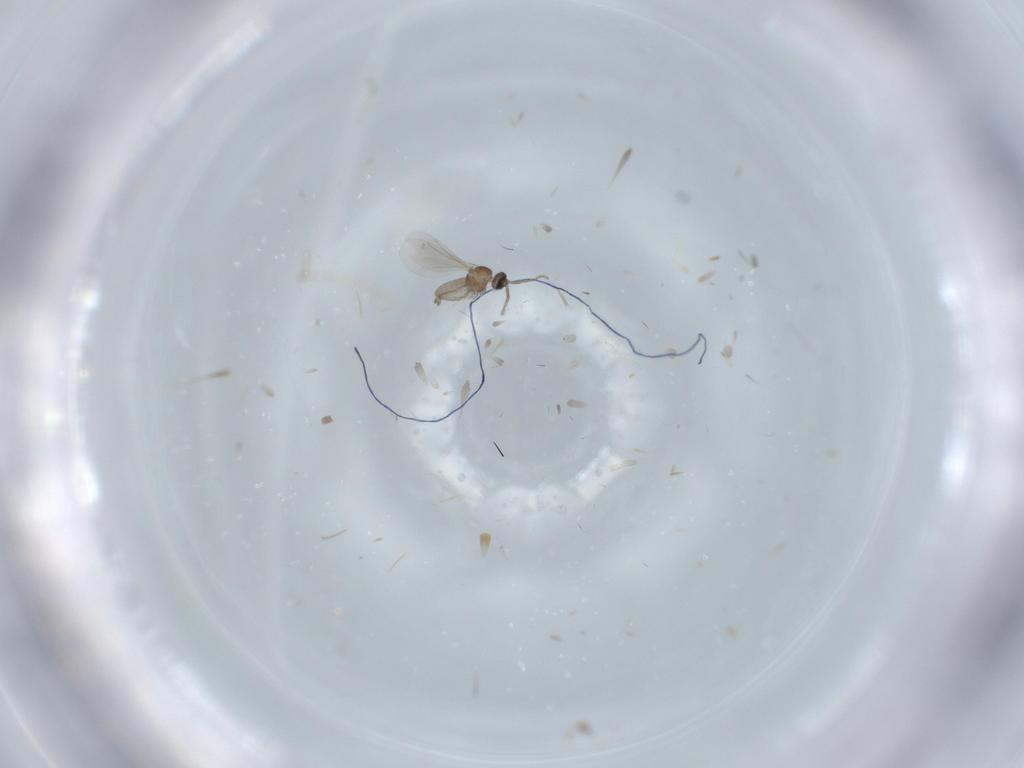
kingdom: Animalia
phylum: Arthropoda
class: Insecta
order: Diptera
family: Cecidomyiidae
